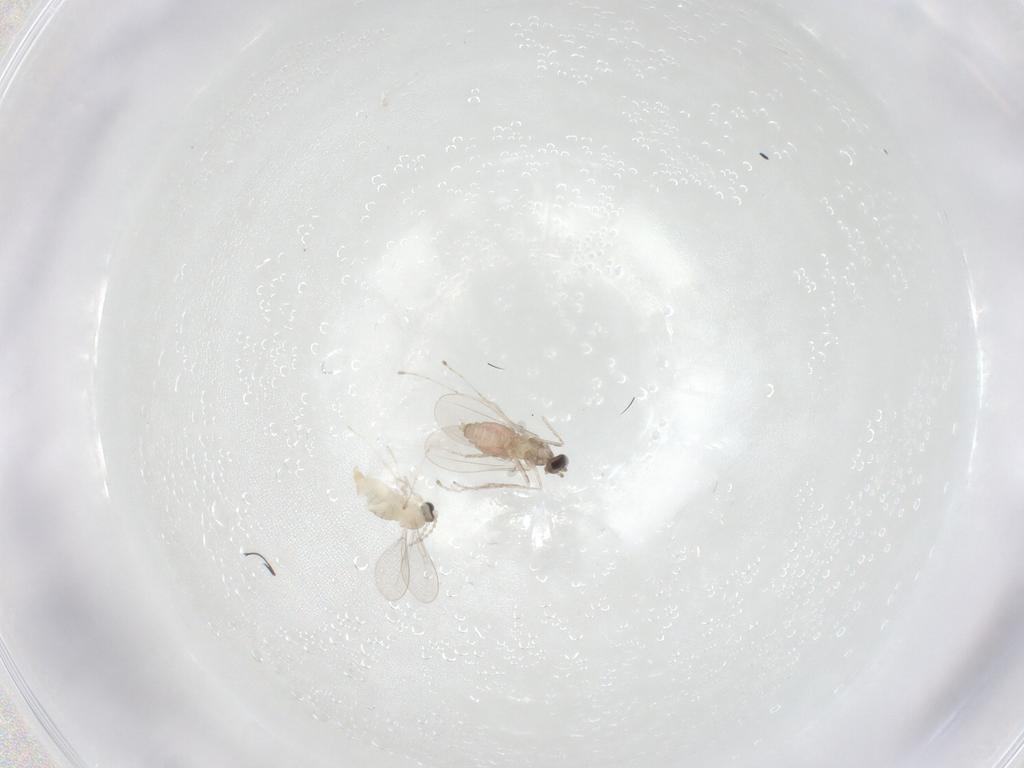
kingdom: Animalia
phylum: Arthropoda
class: Insecta
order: Diptera
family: Cecidomyiidae
